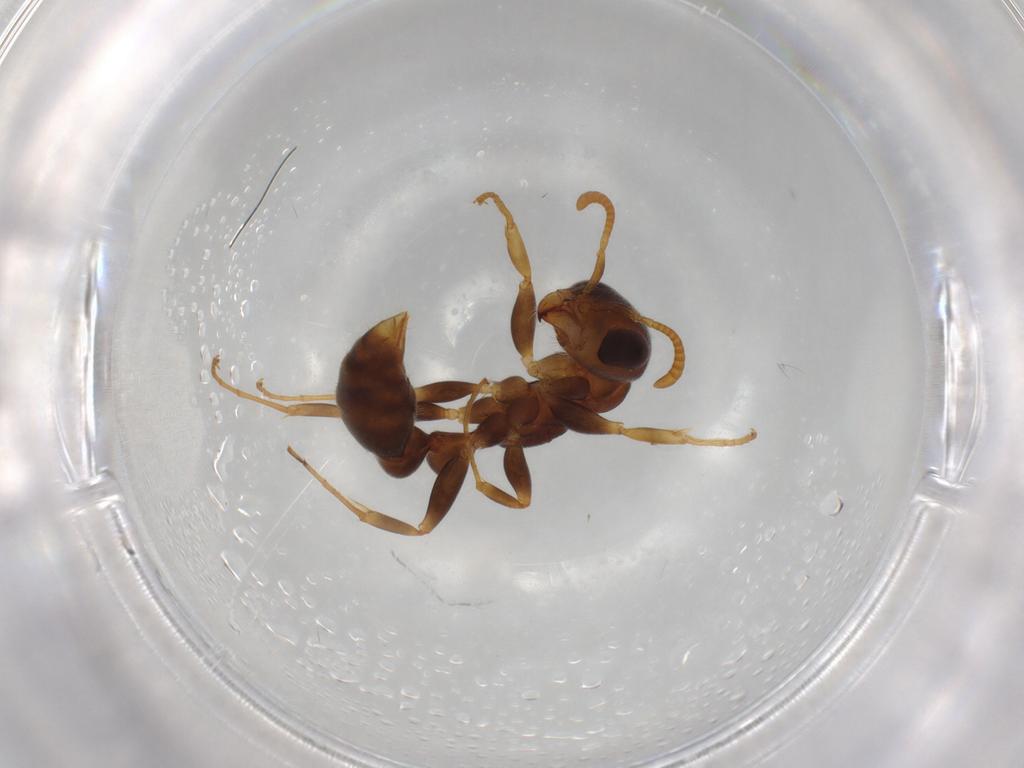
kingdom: Animalia
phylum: Arthropoda
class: Insecta
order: Hymenoptera
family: Formicidae
